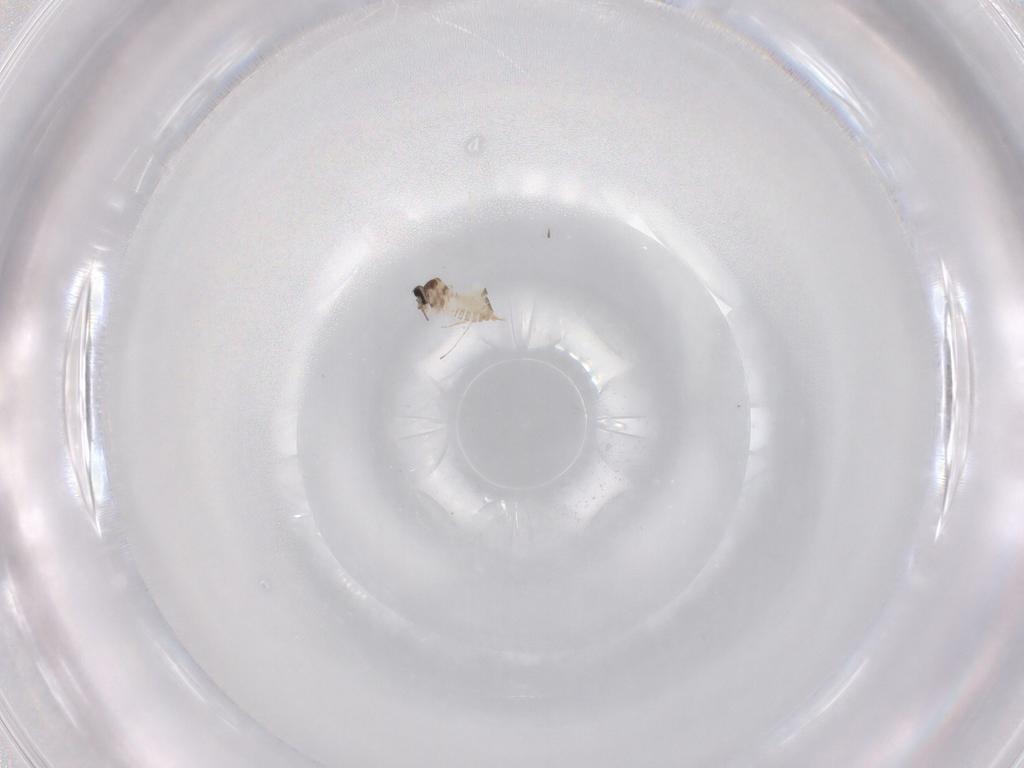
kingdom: Animalia
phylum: Arthropoda
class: Insecta
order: Diptera
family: Cecidomyiidae
